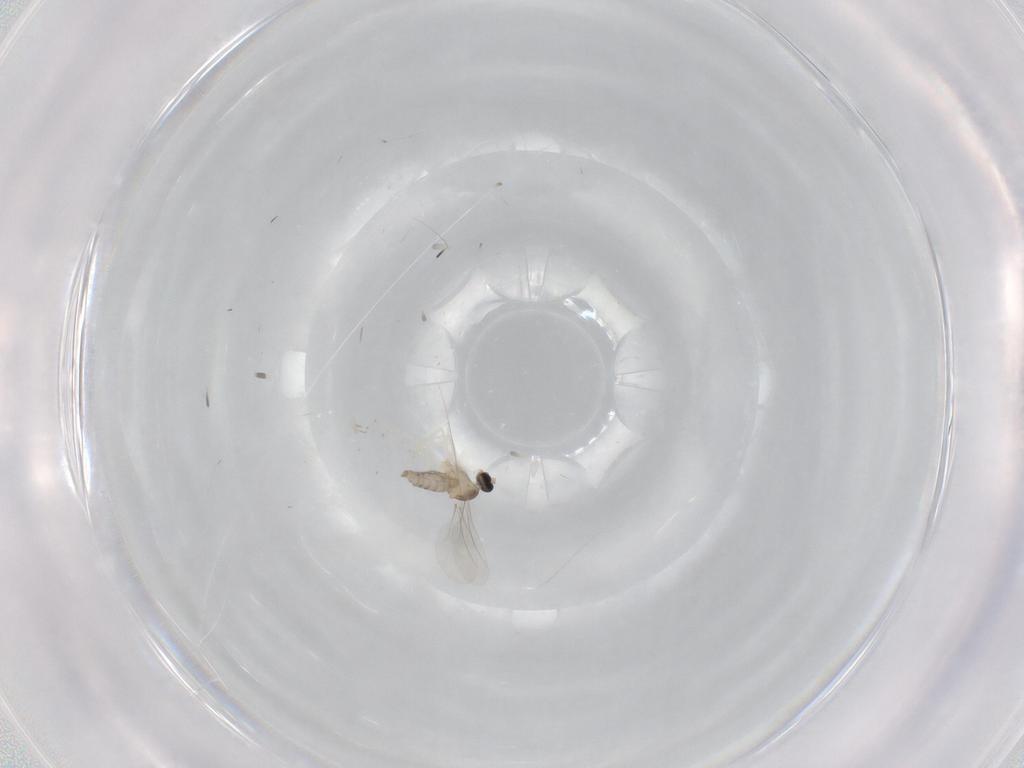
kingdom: Animalia
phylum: Arthropoda
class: Insecta
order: Diptera
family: Cecidomyiidae
